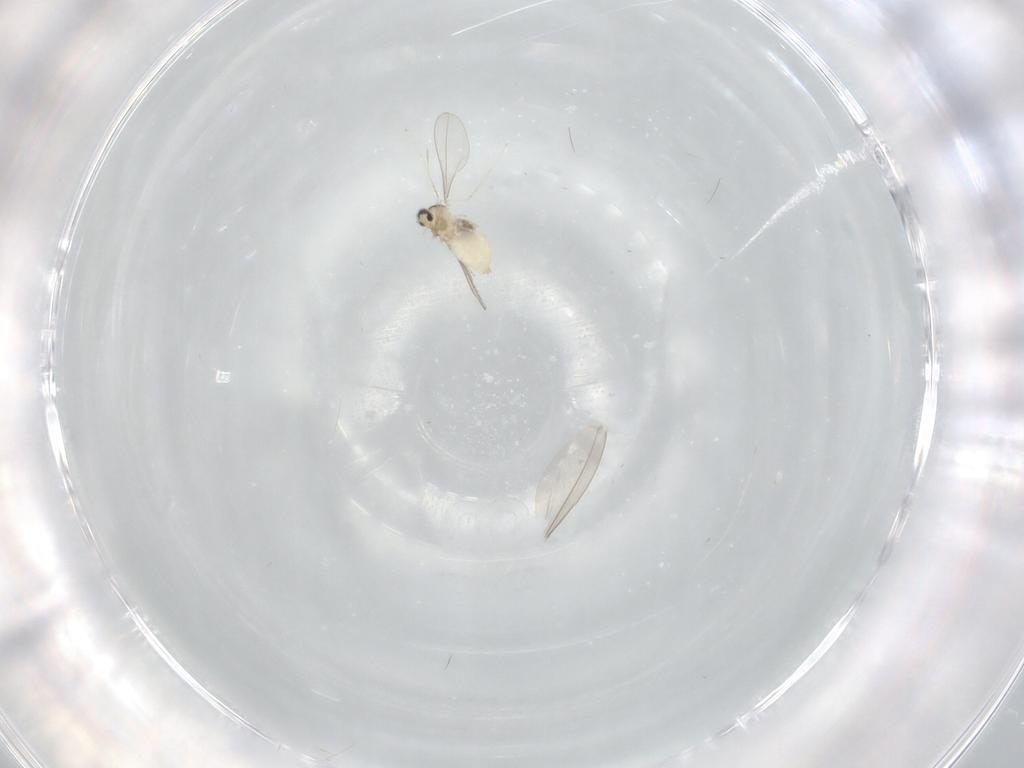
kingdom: Animalia
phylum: Arthropoda
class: Insecta
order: Diptera
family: Cecidomyiidae
